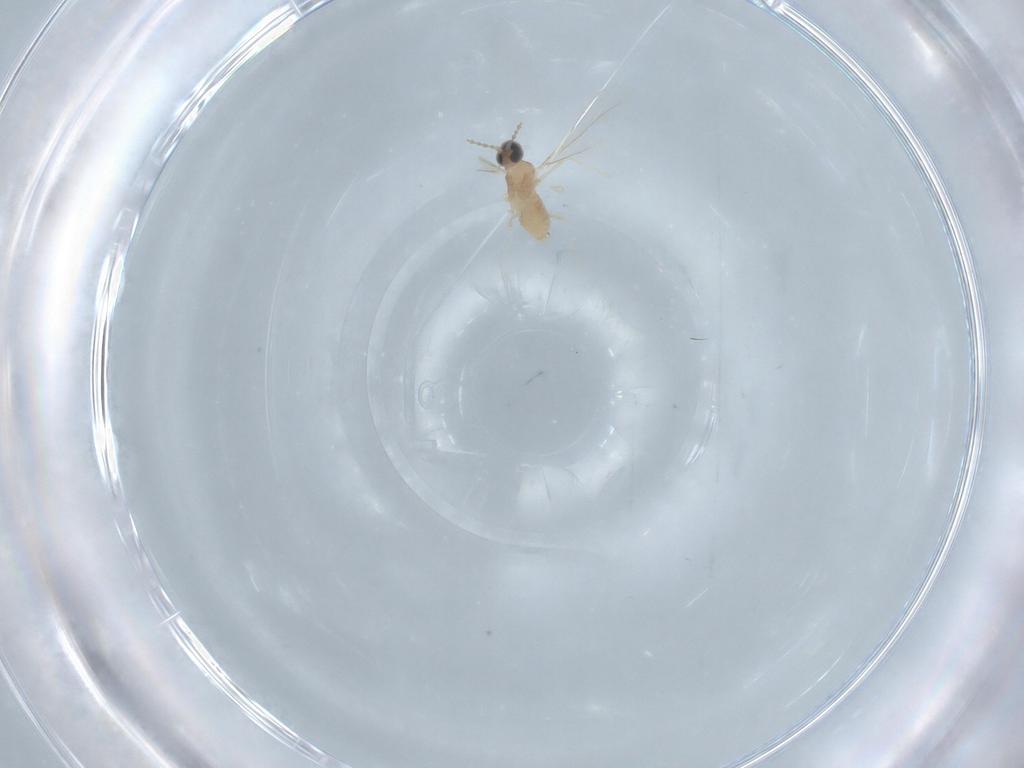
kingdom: Animalia
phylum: Arthropoda
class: Insecta
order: Diptera
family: Cecidomyiidae
